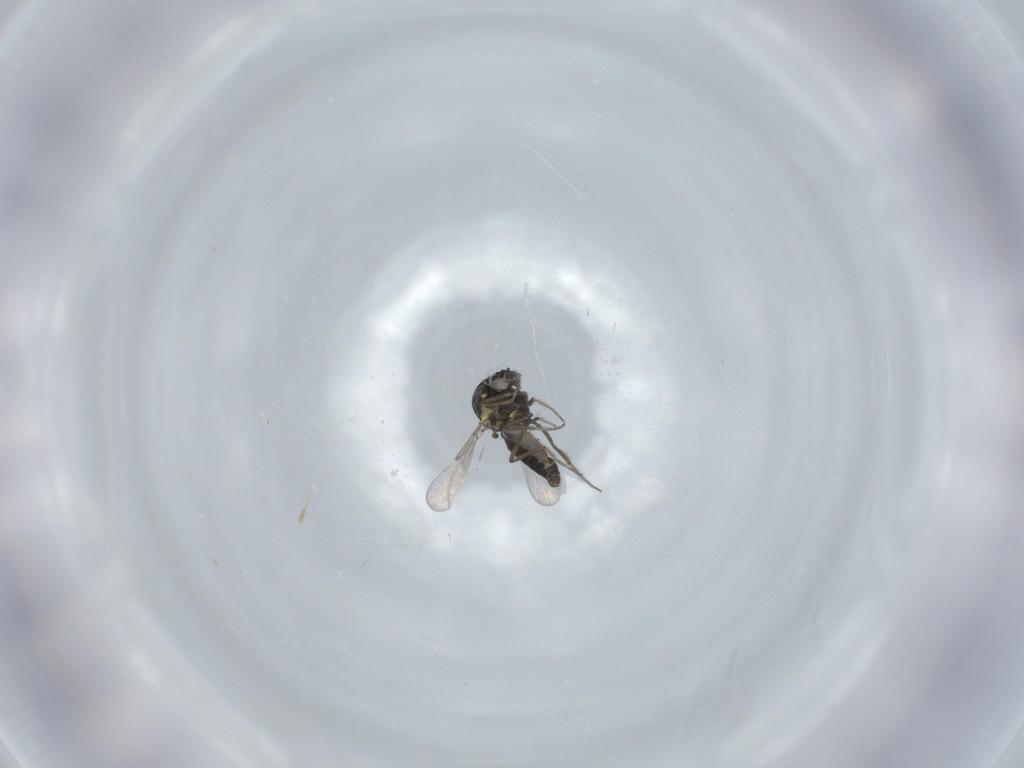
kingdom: Animalia
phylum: Arthropoda
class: Insecta
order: Diptera
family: Ceratopogonidae
